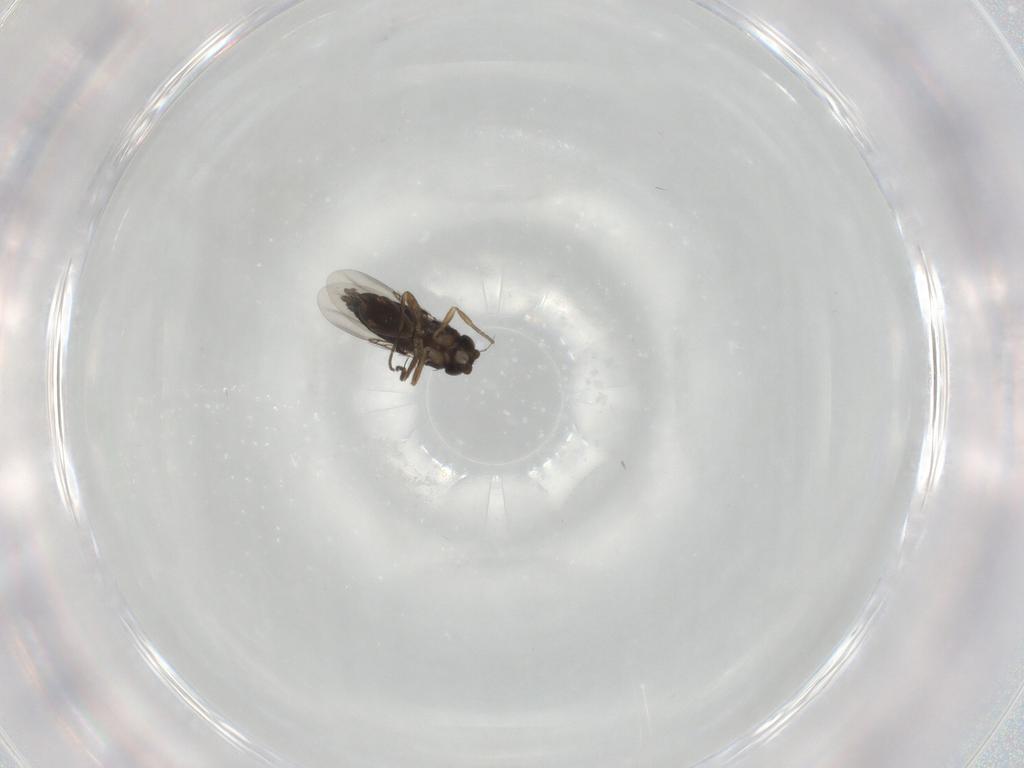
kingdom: Animalia
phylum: Arthropoda
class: Insecta
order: Diptera
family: Phoridae
